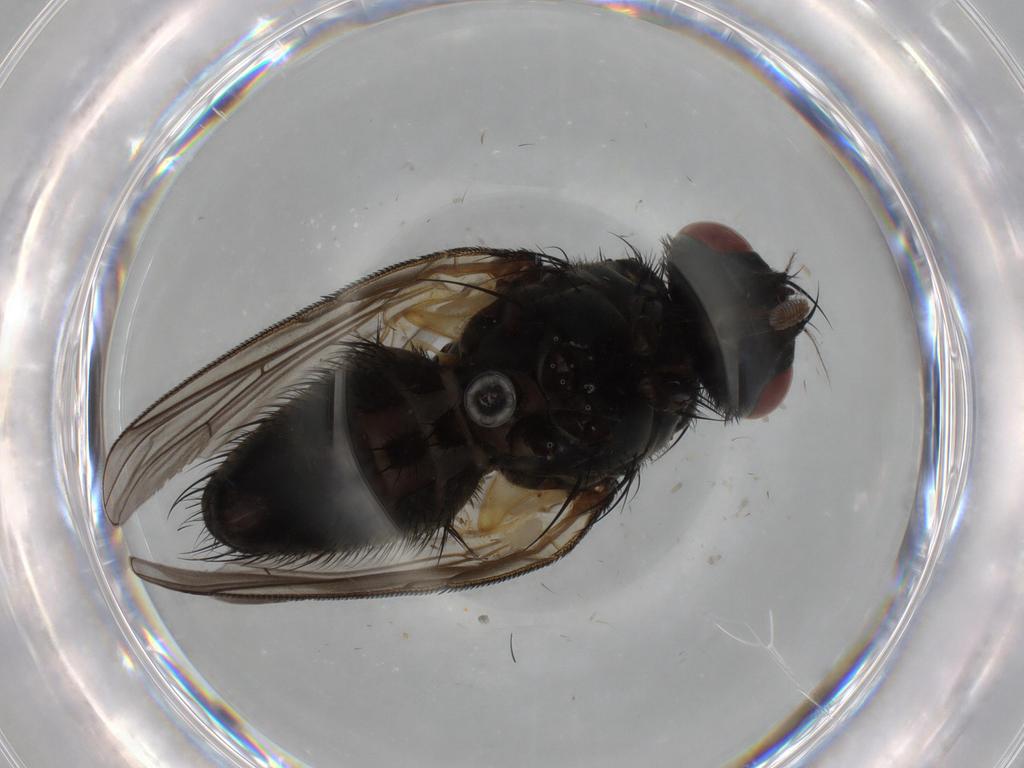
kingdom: Animalia
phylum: Arthropoda
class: Insecta
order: Diptera
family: Muscidae
